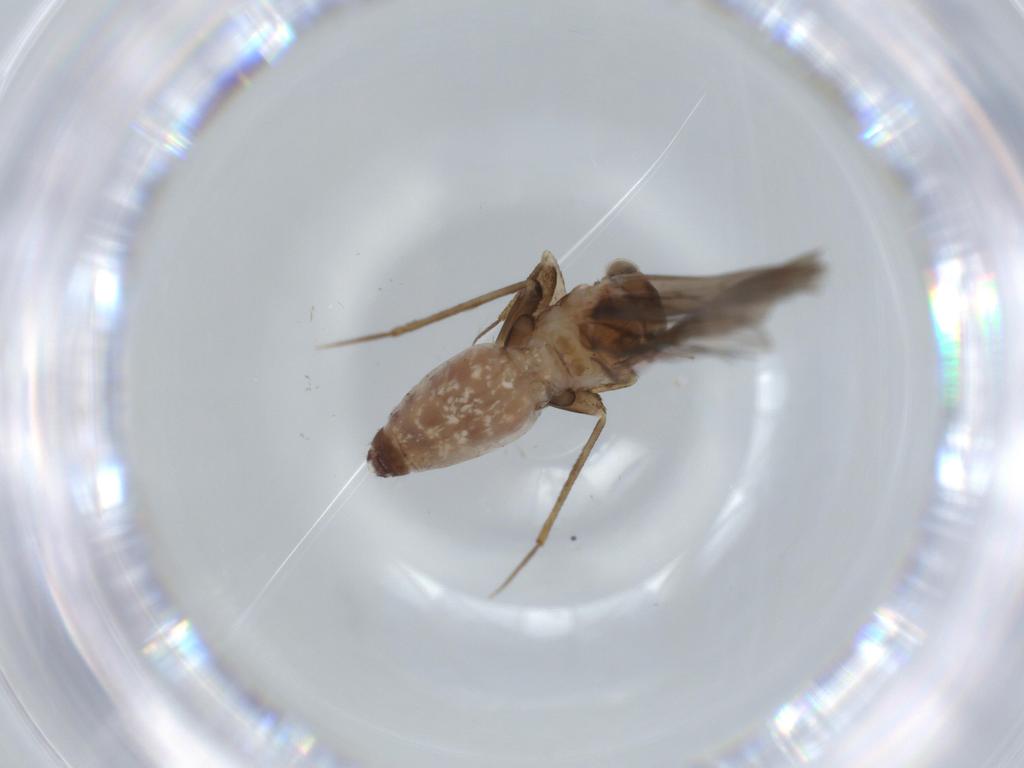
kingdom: Animalia
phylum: Arthropoda
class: Insecta
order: Psocodea
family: Lepidopsocidae
